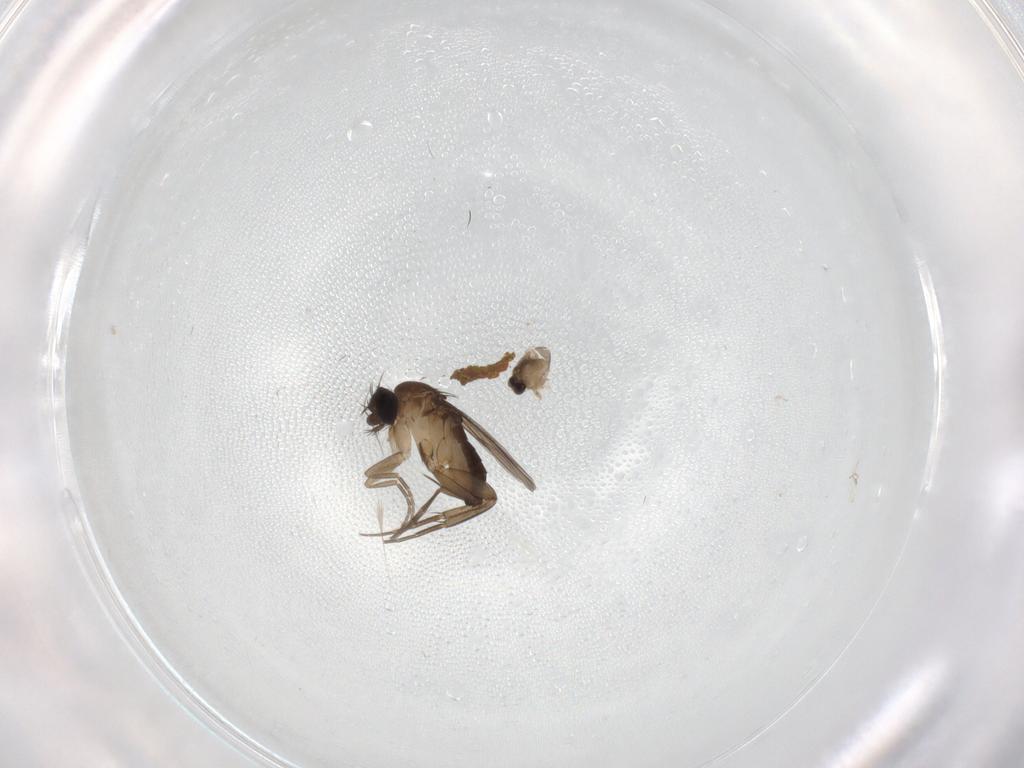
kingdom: Animalia
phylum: Arthropoda
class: Insecta
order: Diptera
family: Phoridae
